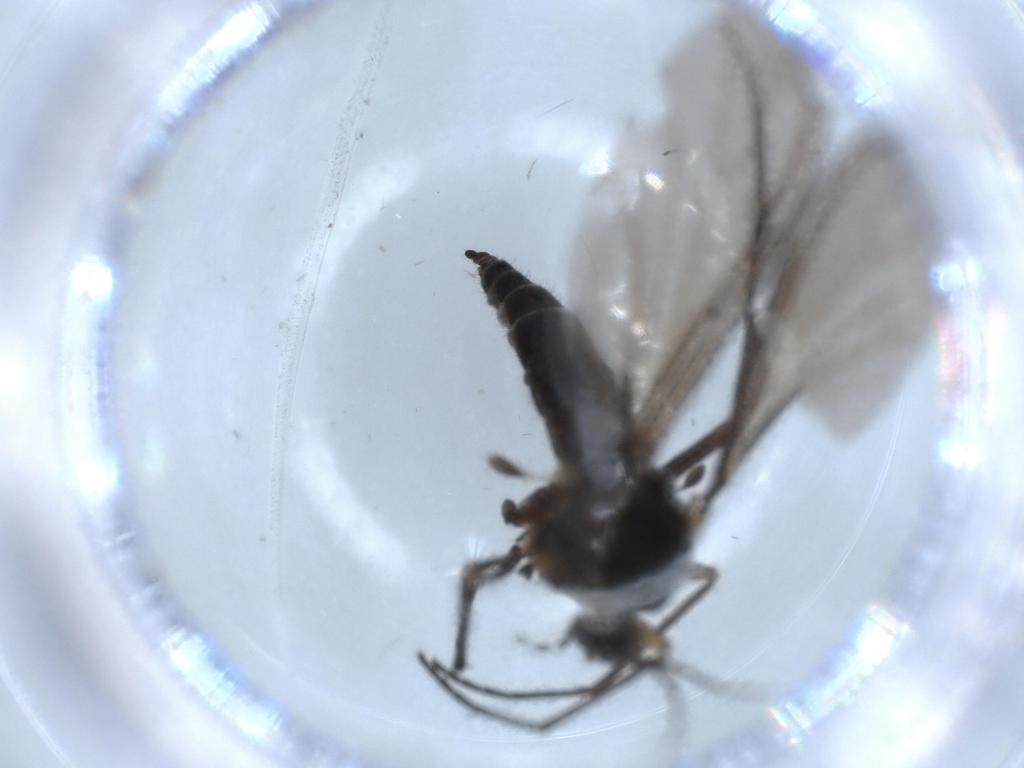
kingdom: Animalia
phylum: Arthropoda
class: Insecta
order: Diptera
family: Sciaridae
